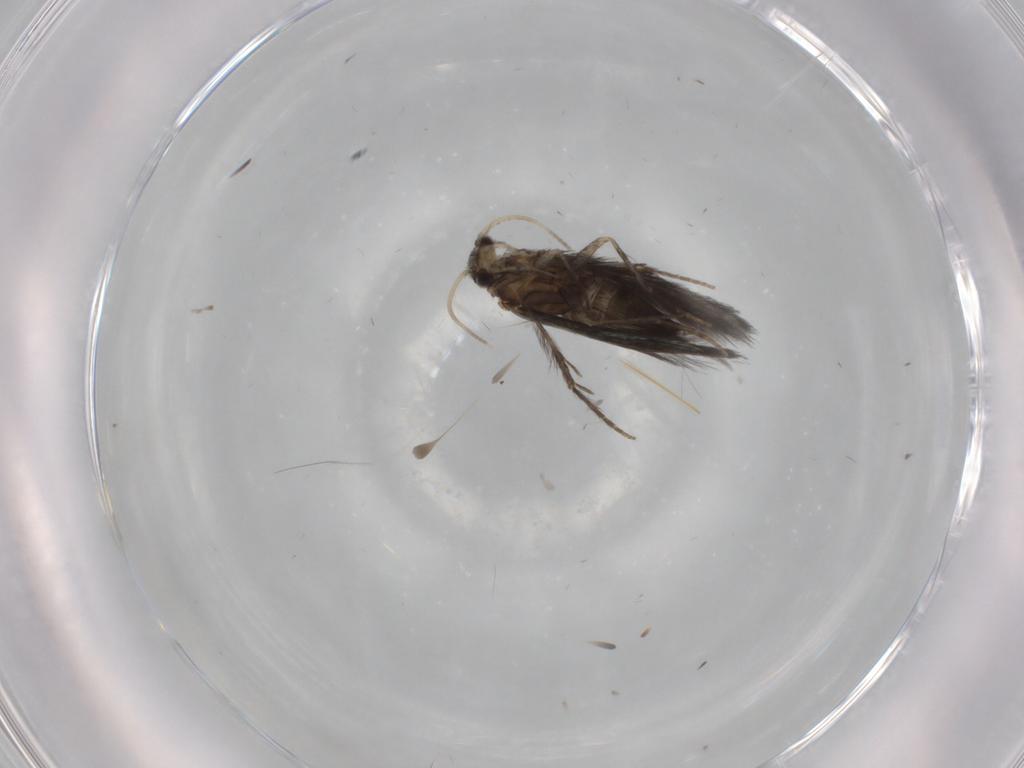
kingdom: Animalia
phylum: Arthropoda
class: Insecta
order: Trichoptera
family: Hydroptilidae
